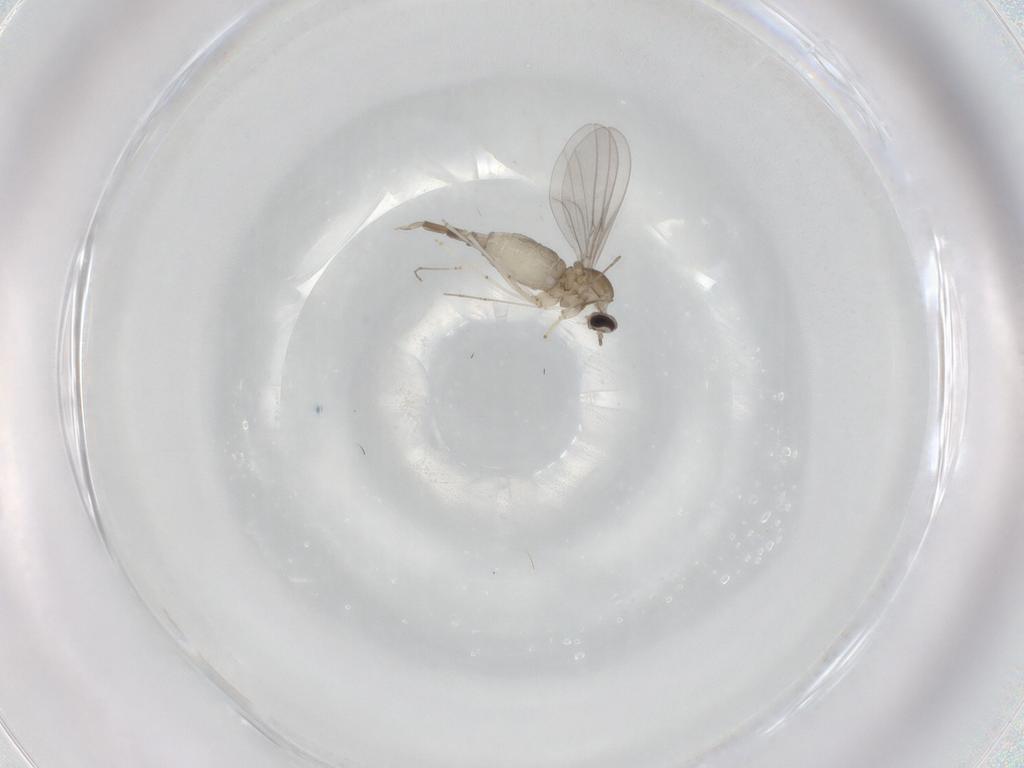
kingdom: Animalia
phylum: Arthropoda
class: Insecta
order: Diptera
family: Cecidomyiidae
